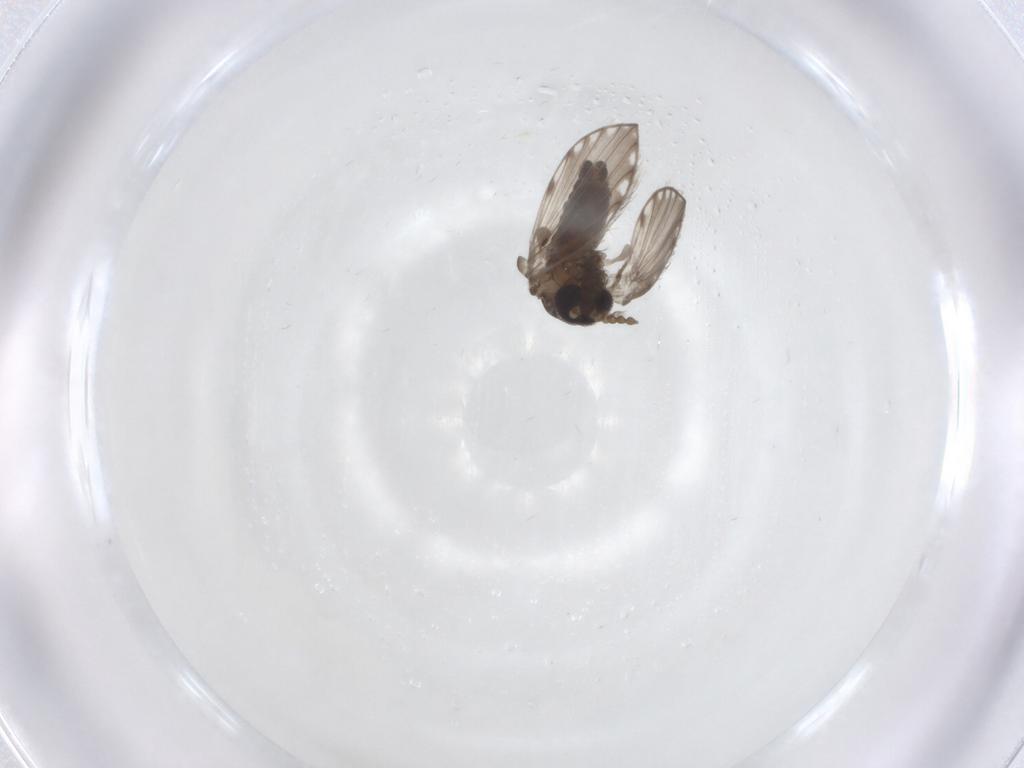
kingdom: Animalia
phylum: Arthropoda
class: Insecta
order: Diptera
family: Psychodidae
